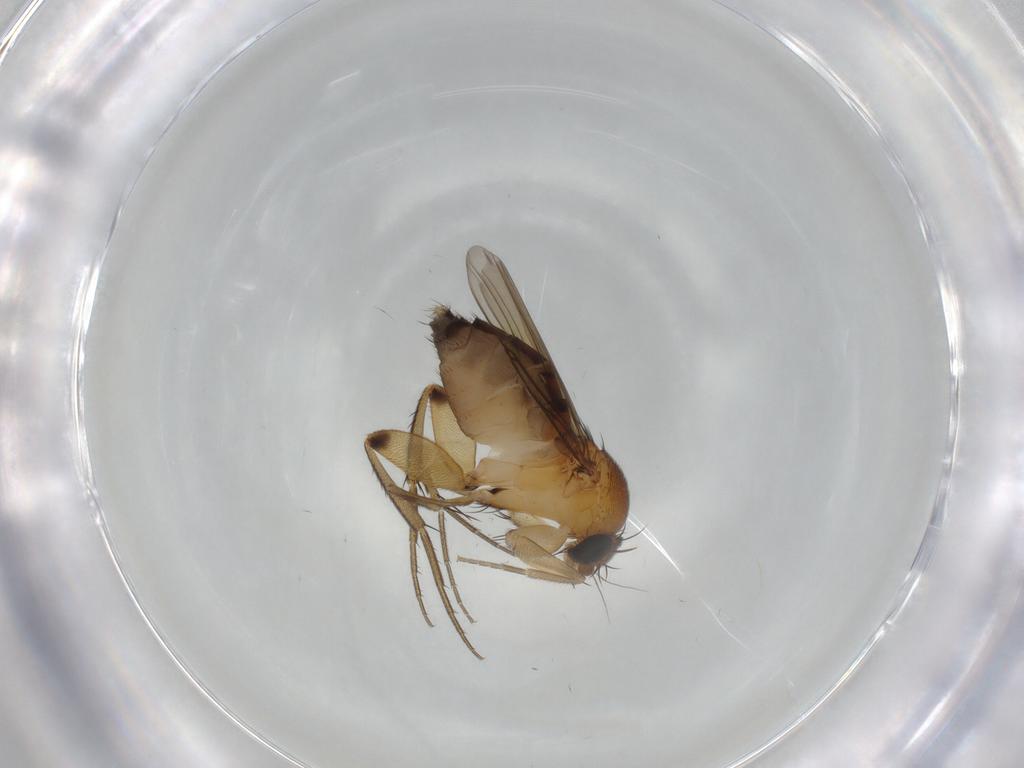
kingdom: Animalia
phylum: Arthropoda
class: Insecta
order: Diptera
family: Phoridae
